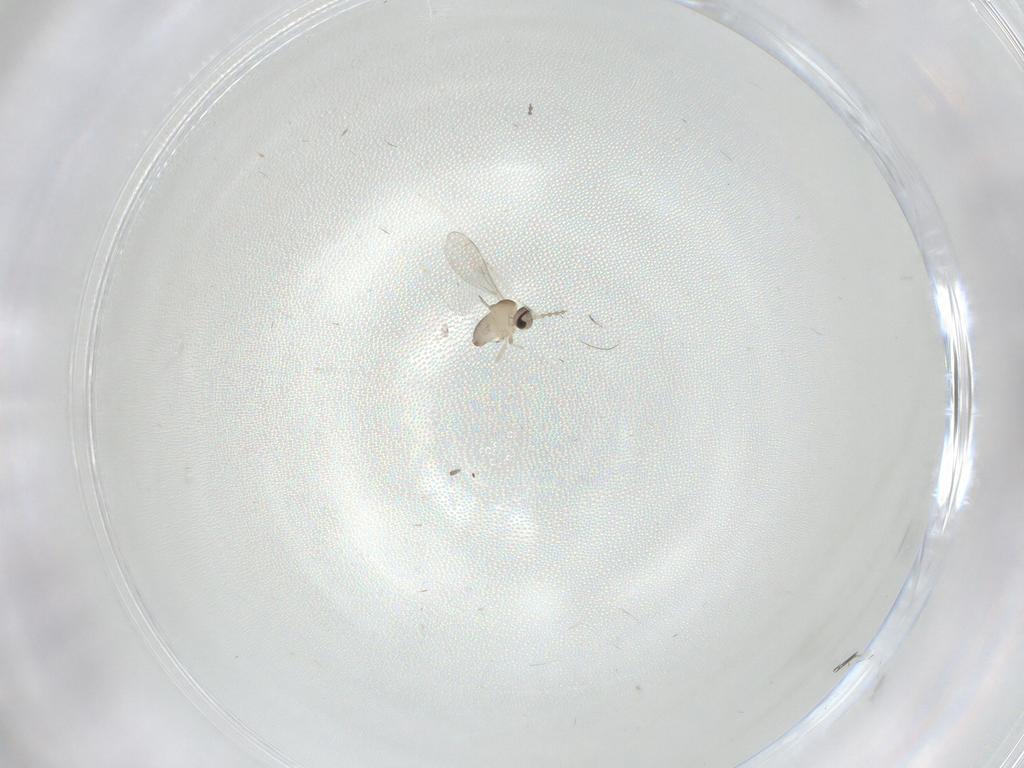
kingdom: Animalia
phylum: Arthropoda
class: Insecta
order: Diptera
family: Cecidomyiidae
